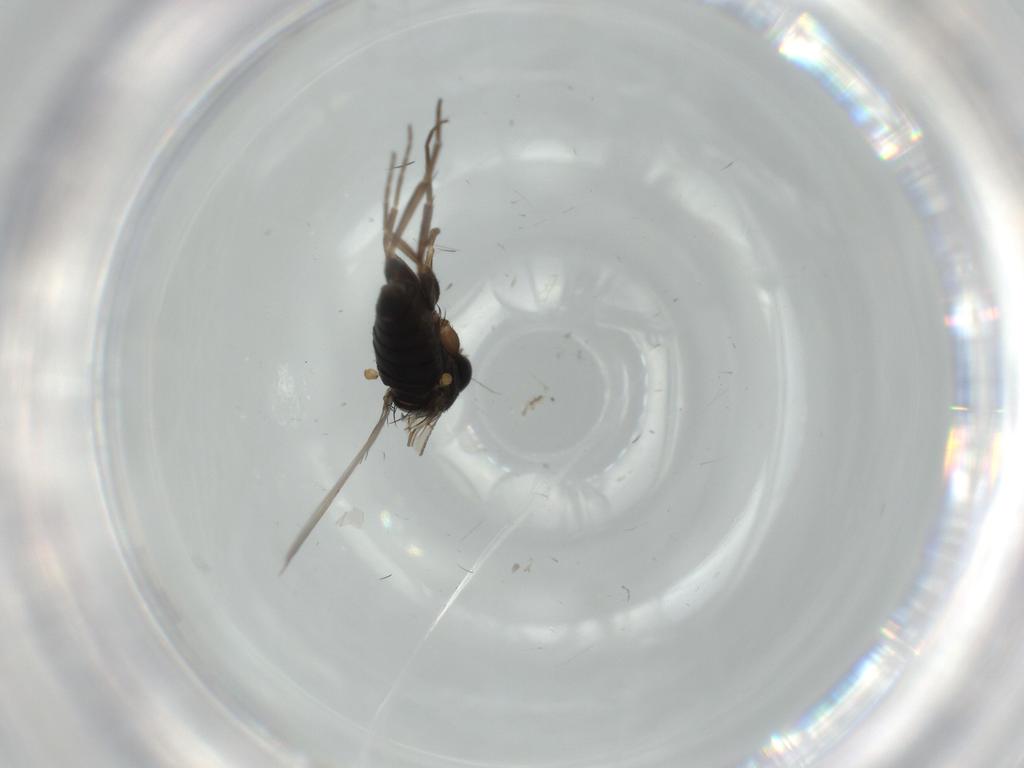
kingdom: Animalia
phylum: Arthropoda
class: Insecta
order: Diptera
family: Phoridae
